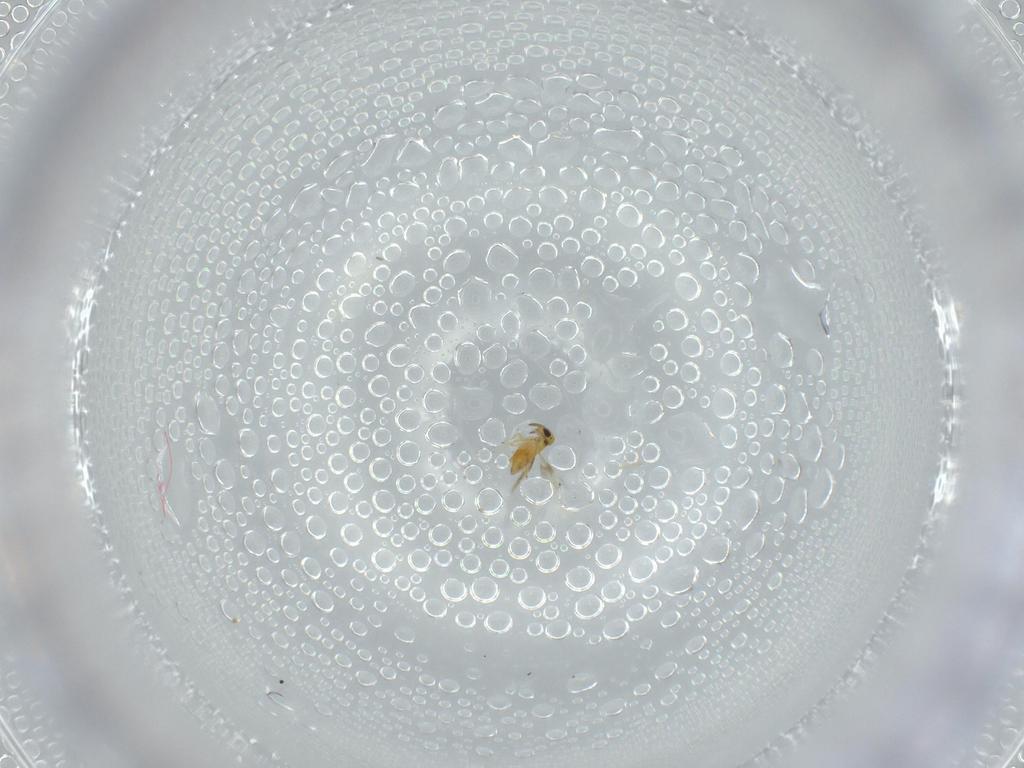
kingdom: Animalia
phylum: Arthropoda
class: Insecta
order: Hymenoptera
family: Signiphoridae
